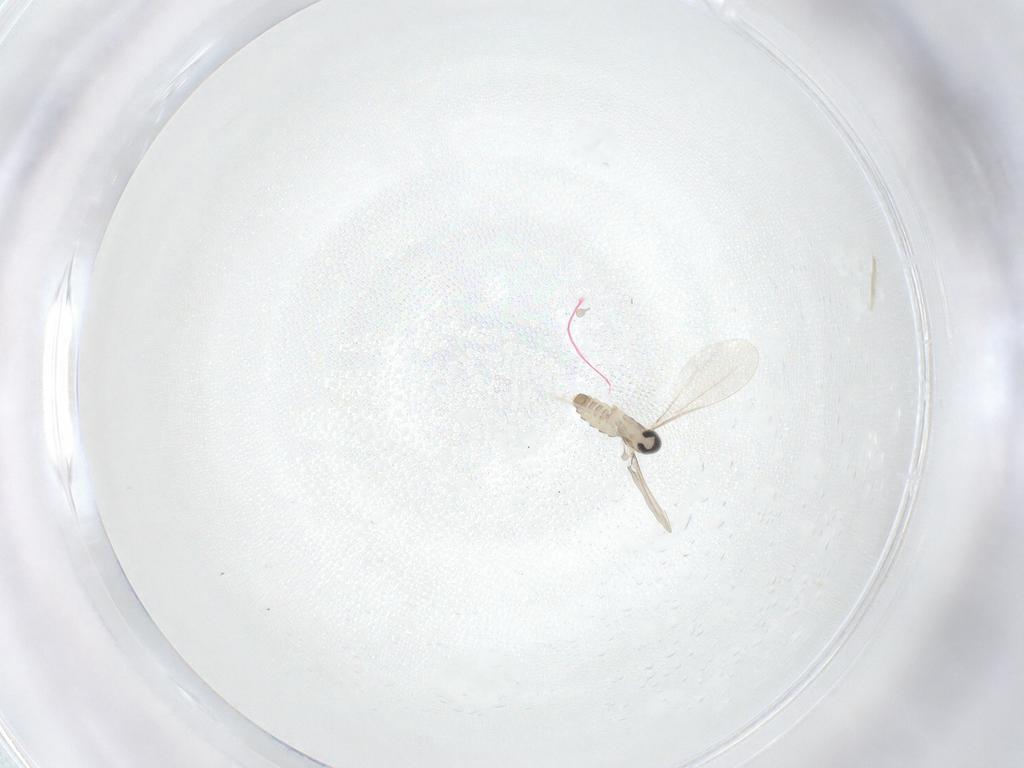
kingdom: Animalia
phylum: Arthropoda
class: Insecta
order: Diptera
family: Cecidomyiidae
